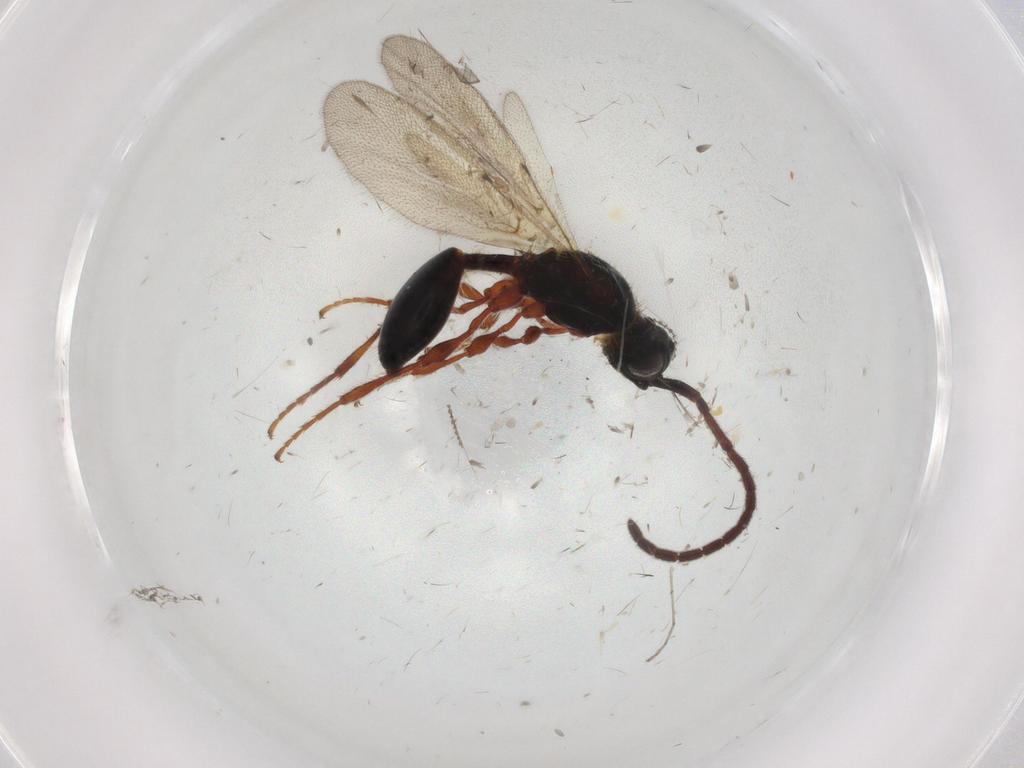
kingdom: Animalia
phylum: Arthropoda
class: Insecta
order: Hymenoptera
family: Diapriidae
